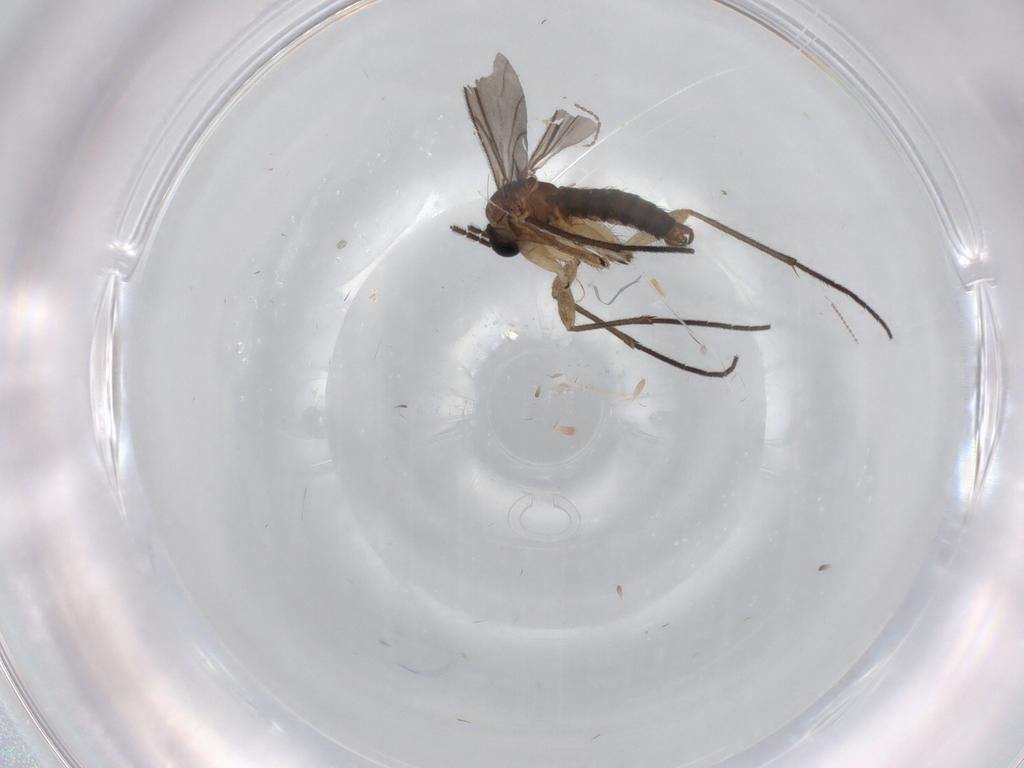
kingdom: Animalia
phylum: Arthropoda
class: Insecta
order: Diptera
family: Sciaridae
